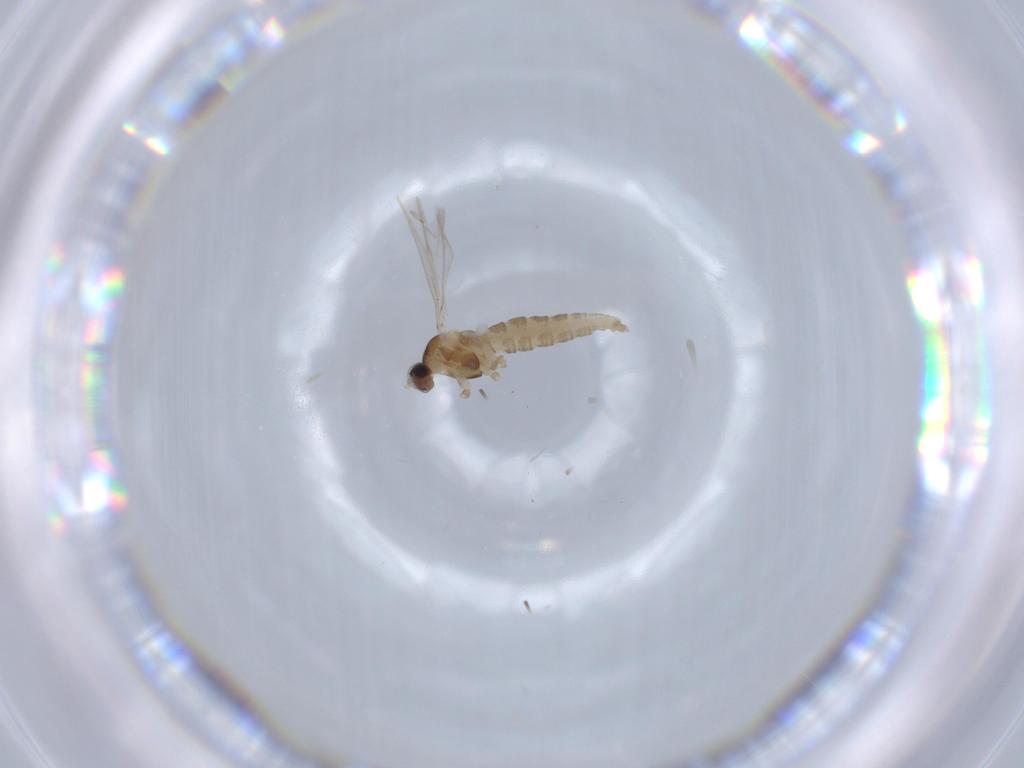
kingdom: Animalia
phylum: Arthropoda
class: Insecta
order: Diptera
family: Cecidomyiidae
